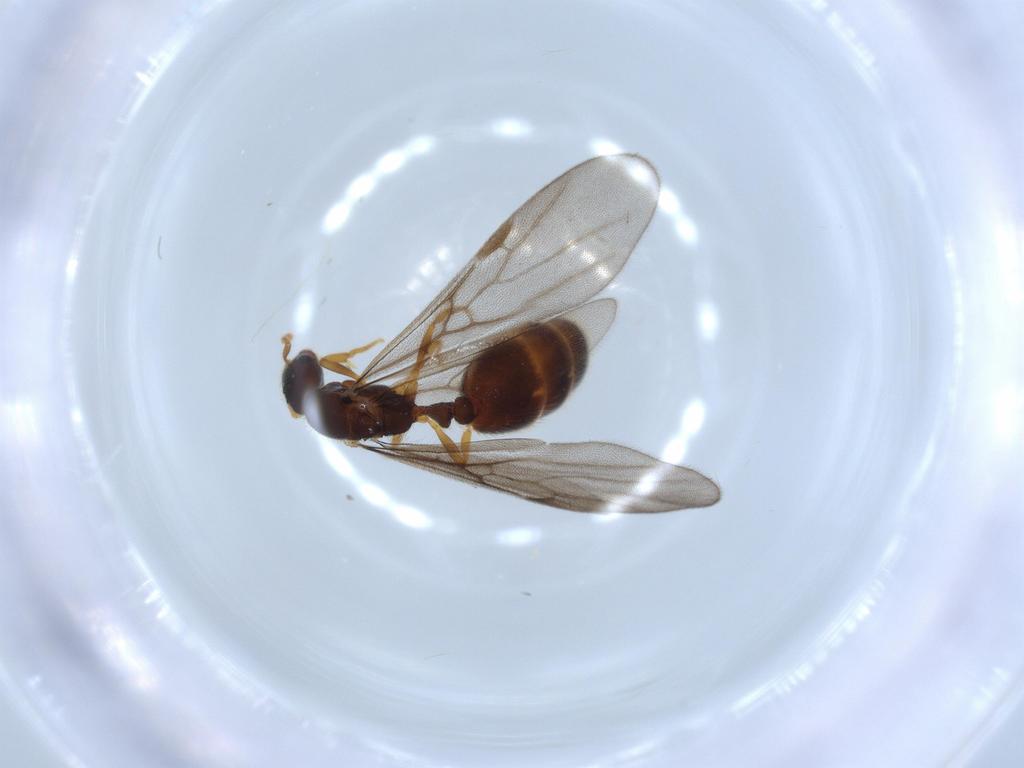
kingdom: Animalia
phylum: Arthropoda
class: Insecta
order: Hymenoptera
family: Formicidae
